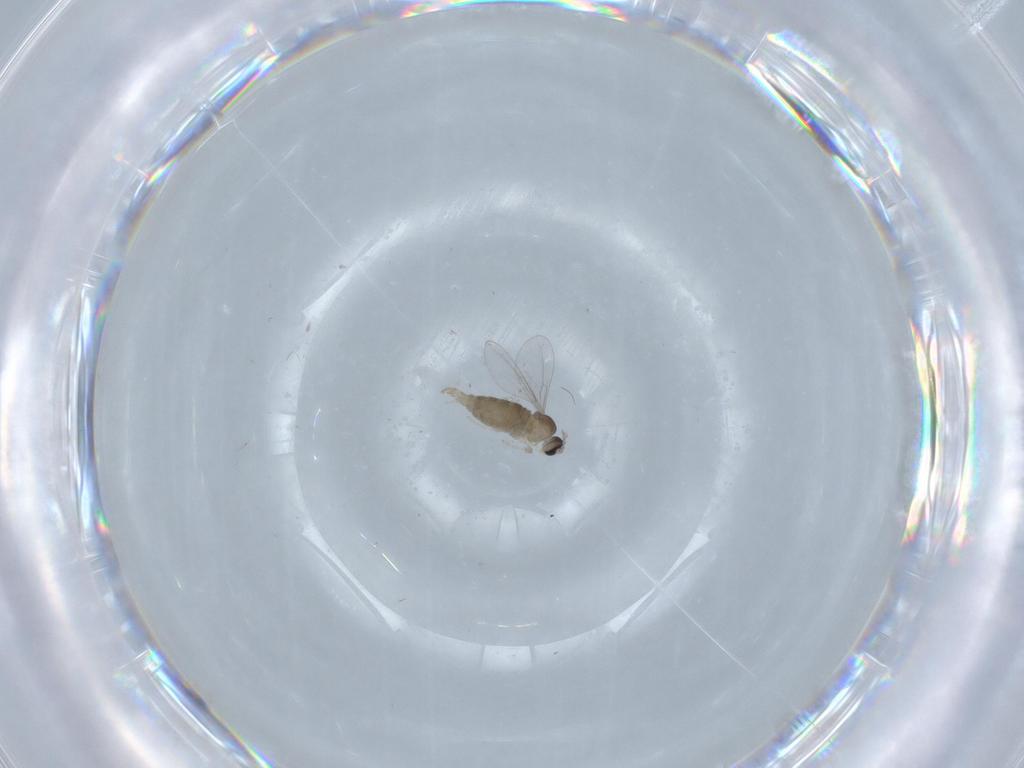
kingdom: Animalia
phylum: Arthropoda
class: Insecta
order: Diptera
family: Cecidomyiidae
